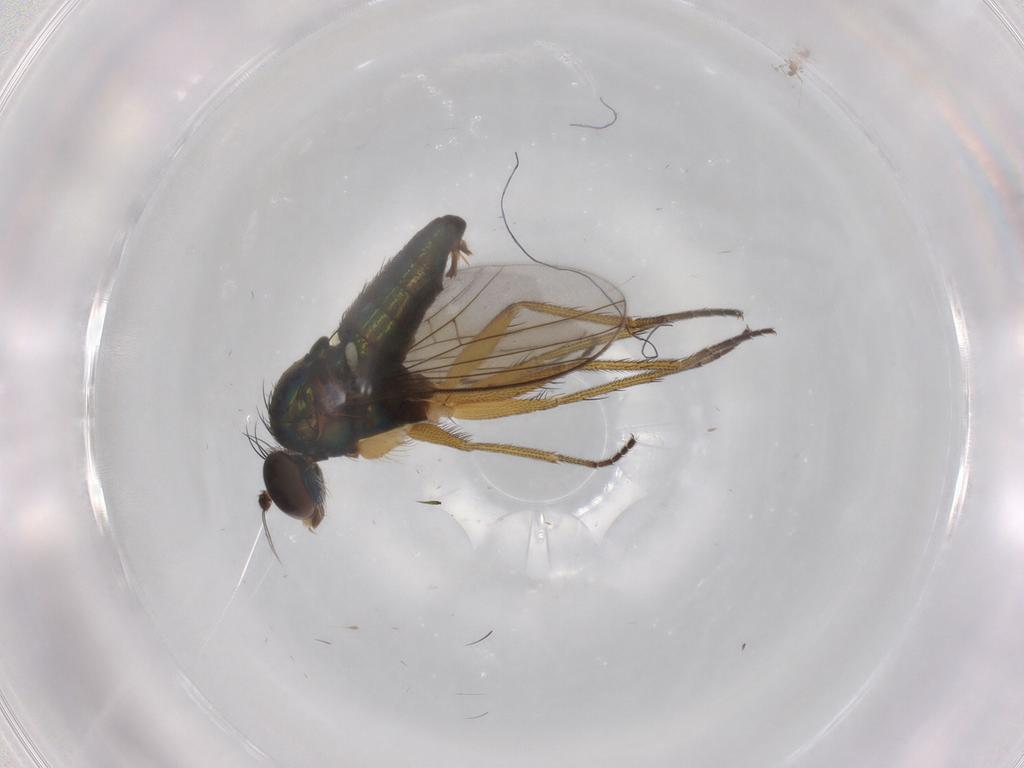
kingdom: Animalia
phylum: Arthropoda
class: Insecta
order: Diptera
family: Dolichopodidae
